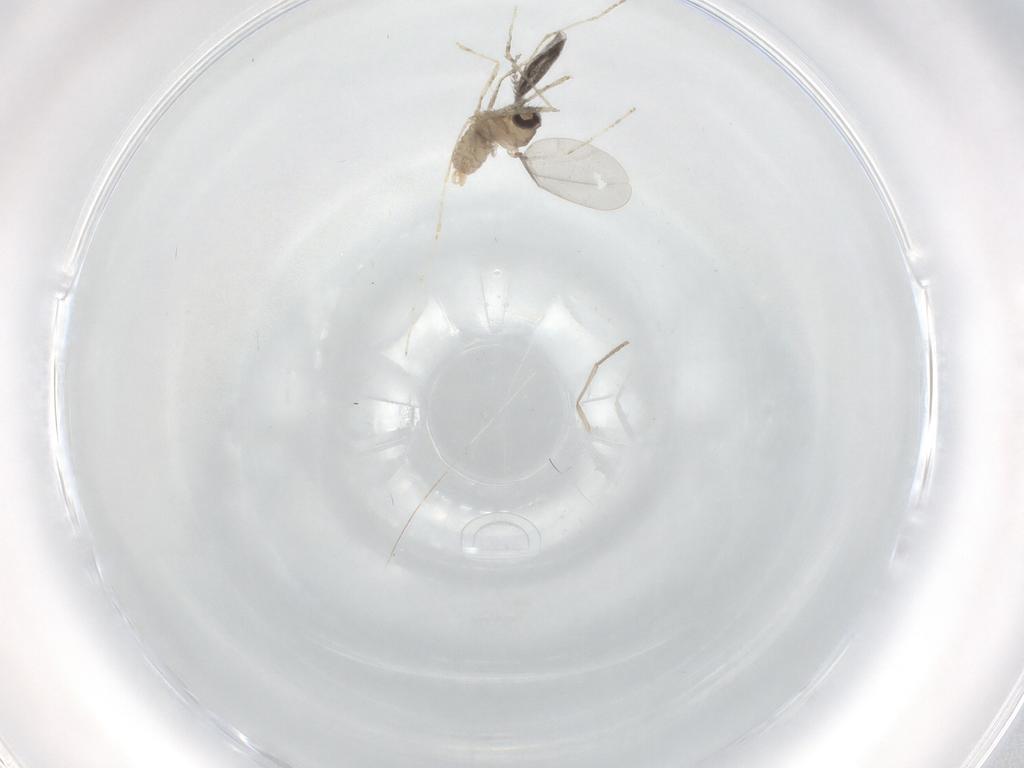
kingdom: Animalia
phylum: Arthropoda
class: Insecta
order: Diptera
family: Cecidomyiidae
